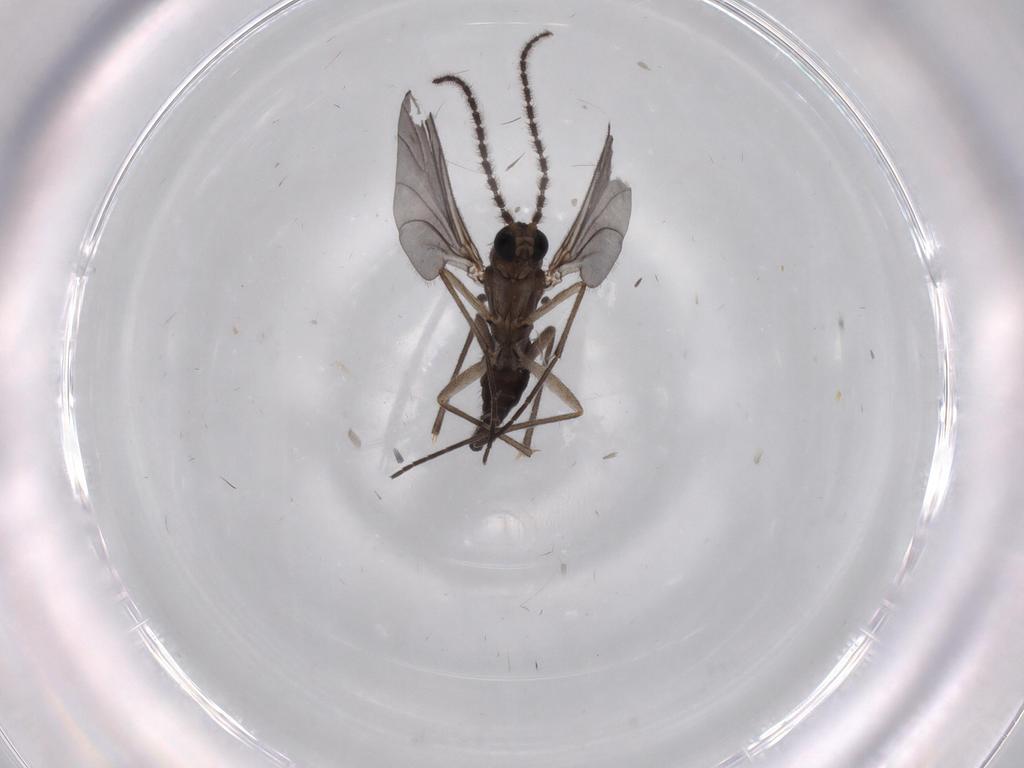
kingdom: Animalia
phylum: Arthropoda
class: Insecta
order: Diptera
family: Sciaridae
